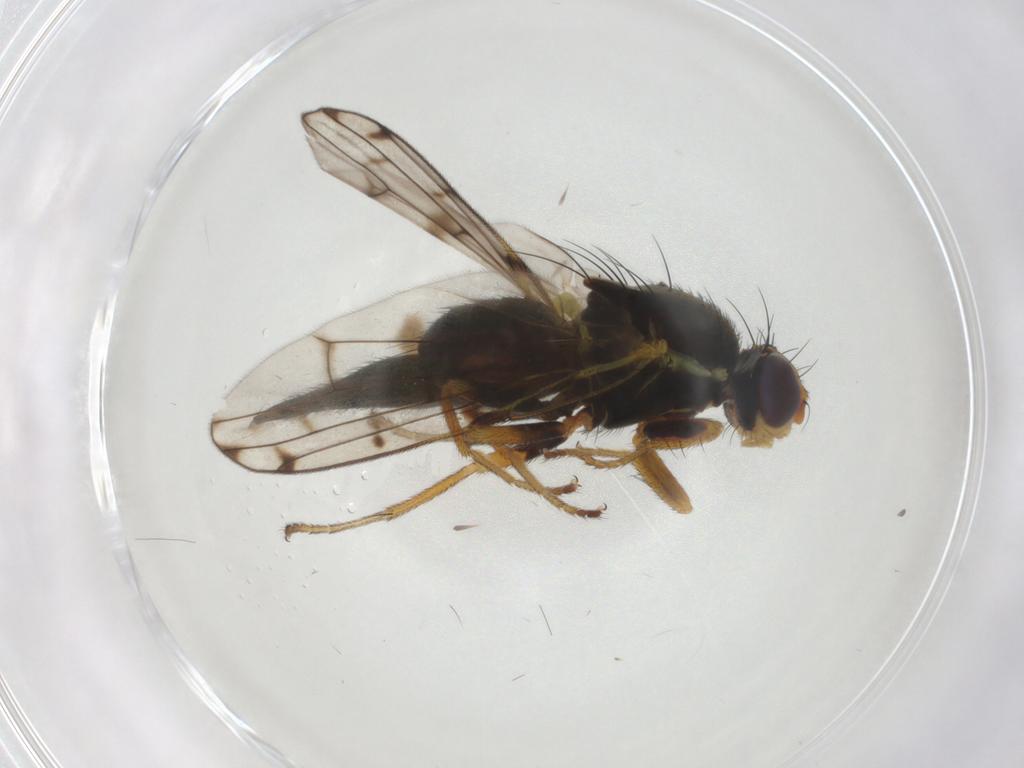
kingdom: Animalia
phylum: Arthropoda
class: Insecta
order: Diptera
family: Tephritidae
